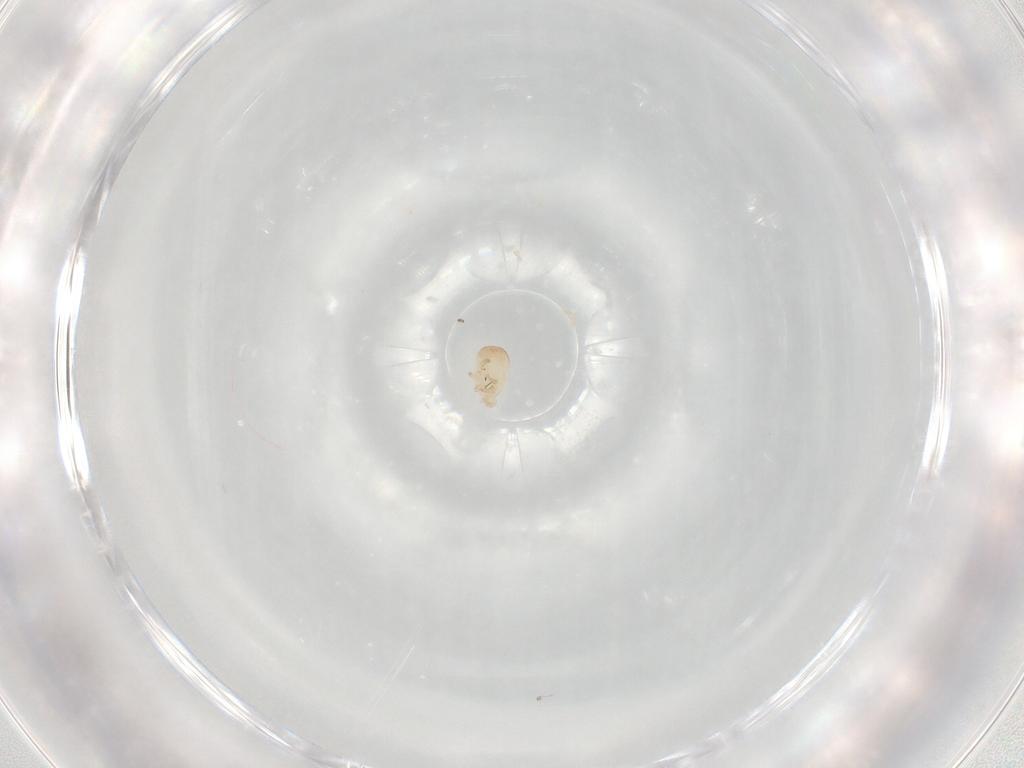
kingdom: Animalia
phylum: Arthropoda
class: Arachnida
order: Mesostigmata
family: Zerconidae
